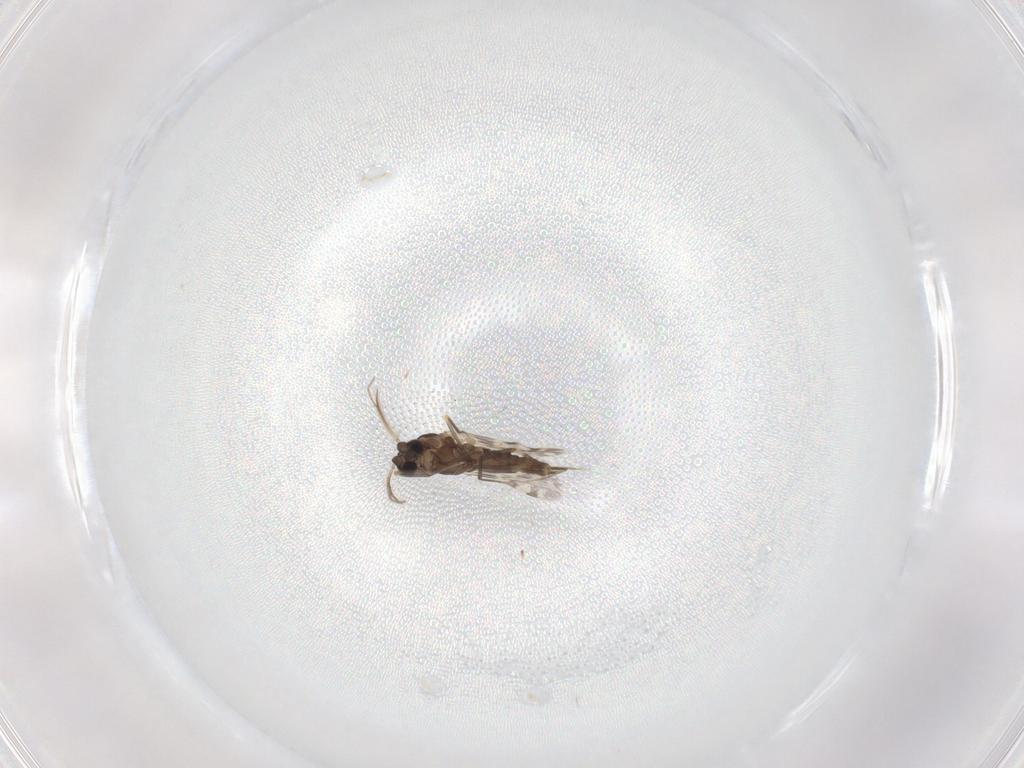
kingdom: Animalia
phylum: Arthropoda
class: Insecta
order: Diptera
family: Ceratopogonidae
